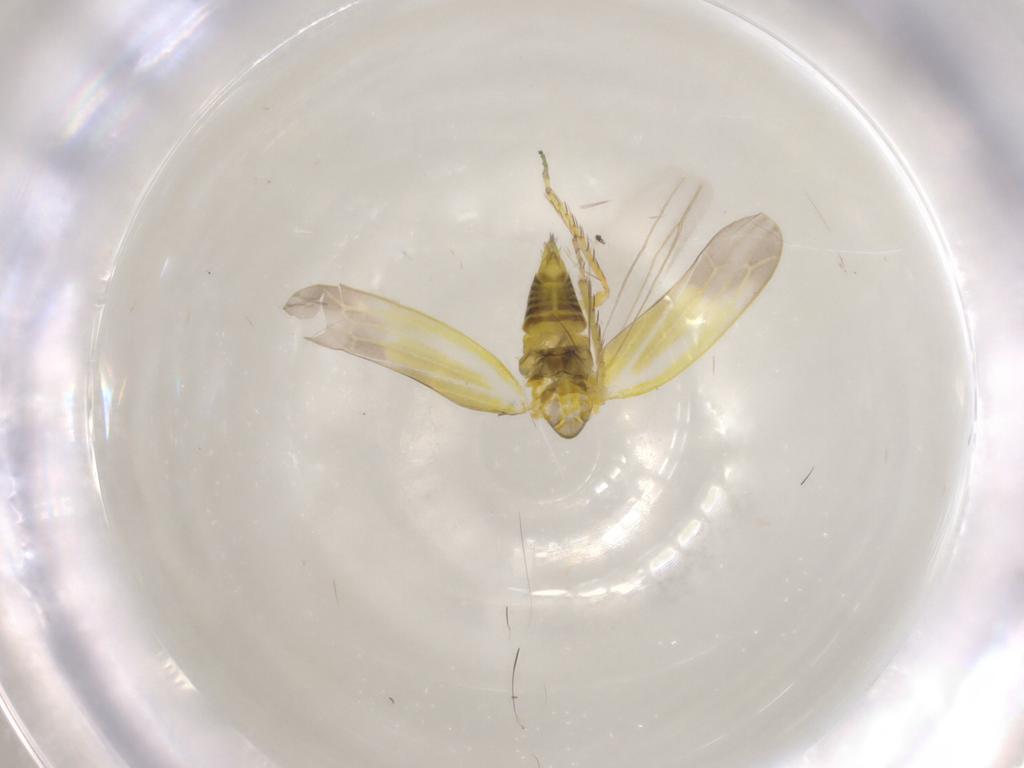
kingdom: Animalia
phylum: Arthropoda
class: Insecta
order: Hemiptera
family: Cicadellidae
